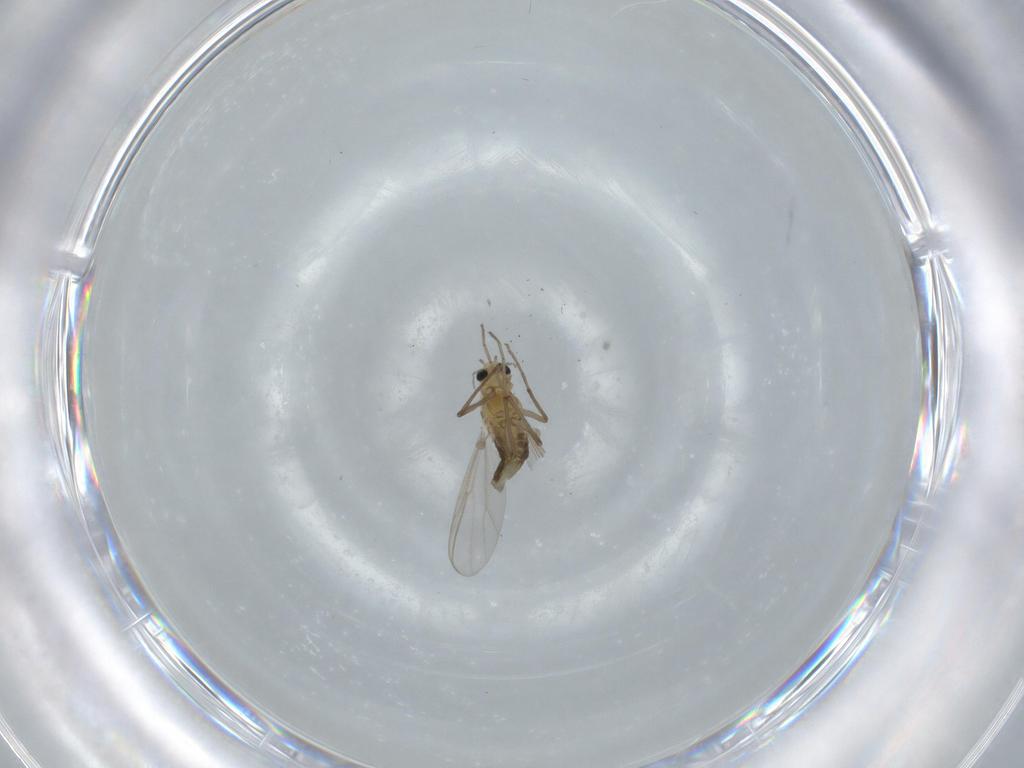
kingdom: Animalia
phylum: Arthropoda
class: Insecta
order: Diptera
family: Chironomidae
